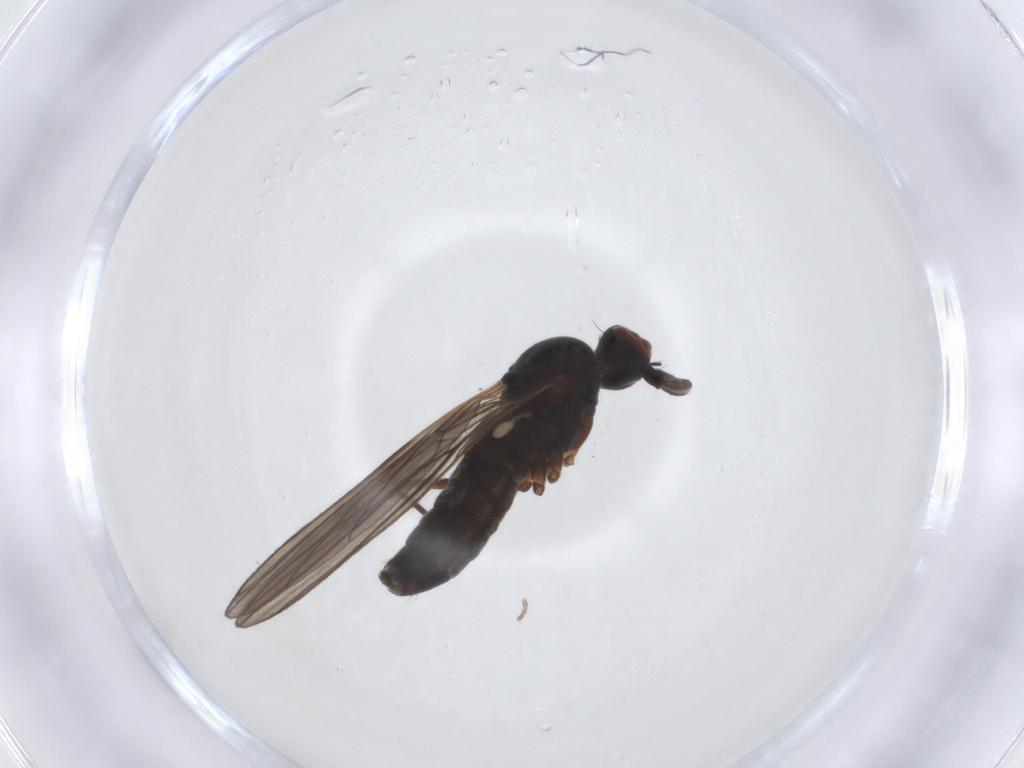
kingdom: Animalia
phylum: Arthropoda
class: Insecta
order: Diptera
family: Brachystomatidae
